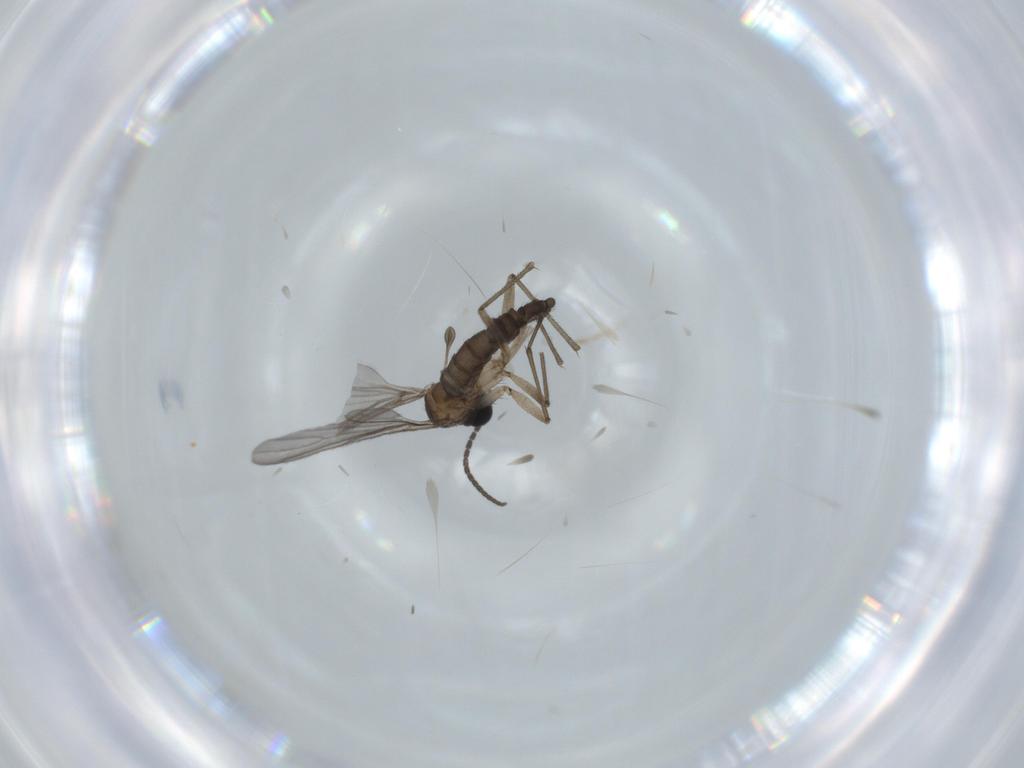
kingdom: Animalia
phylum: Arthropoda
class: Insecta
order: Diptera
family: Sciaridae
